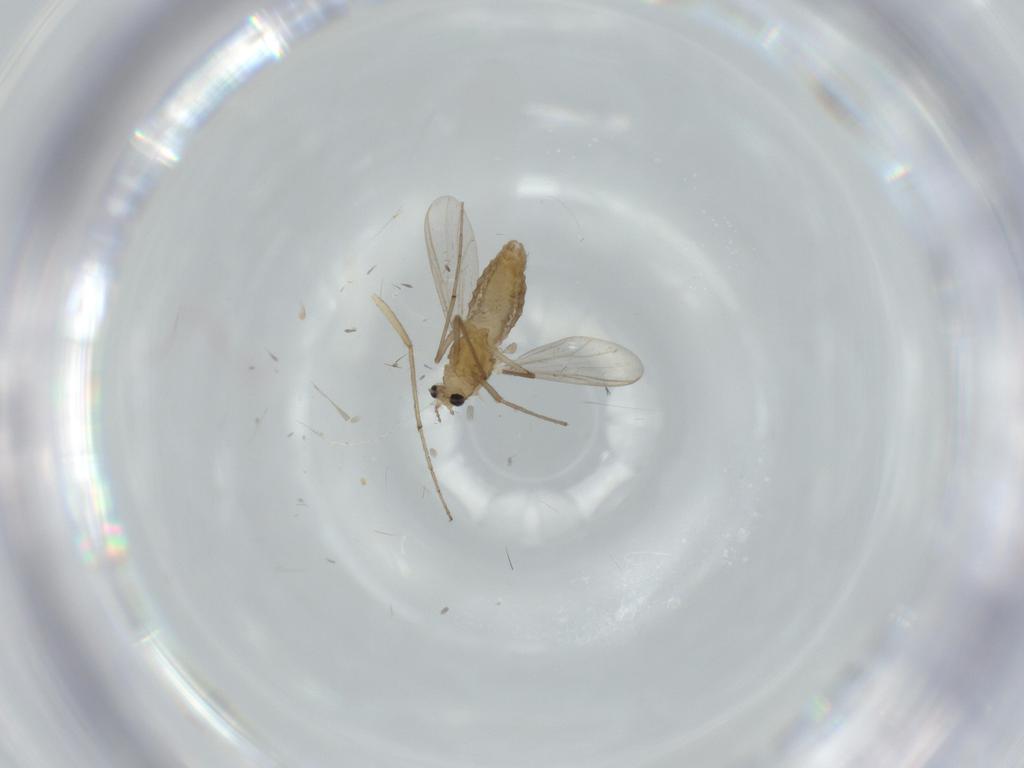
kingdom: Animalia
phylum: Arthropoda
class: Insecta
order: Diptera
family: Chironomidae
